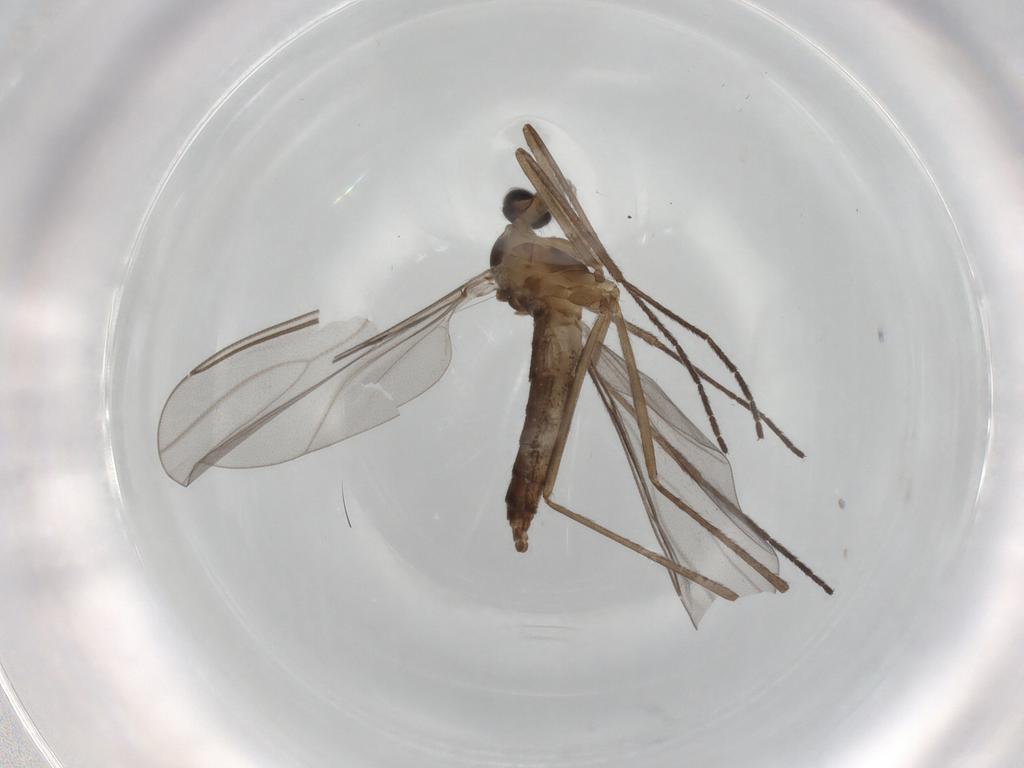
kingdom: Animalia
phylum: Arthropoda
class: Insecta
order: Diptera
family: Cecidomyiidae
